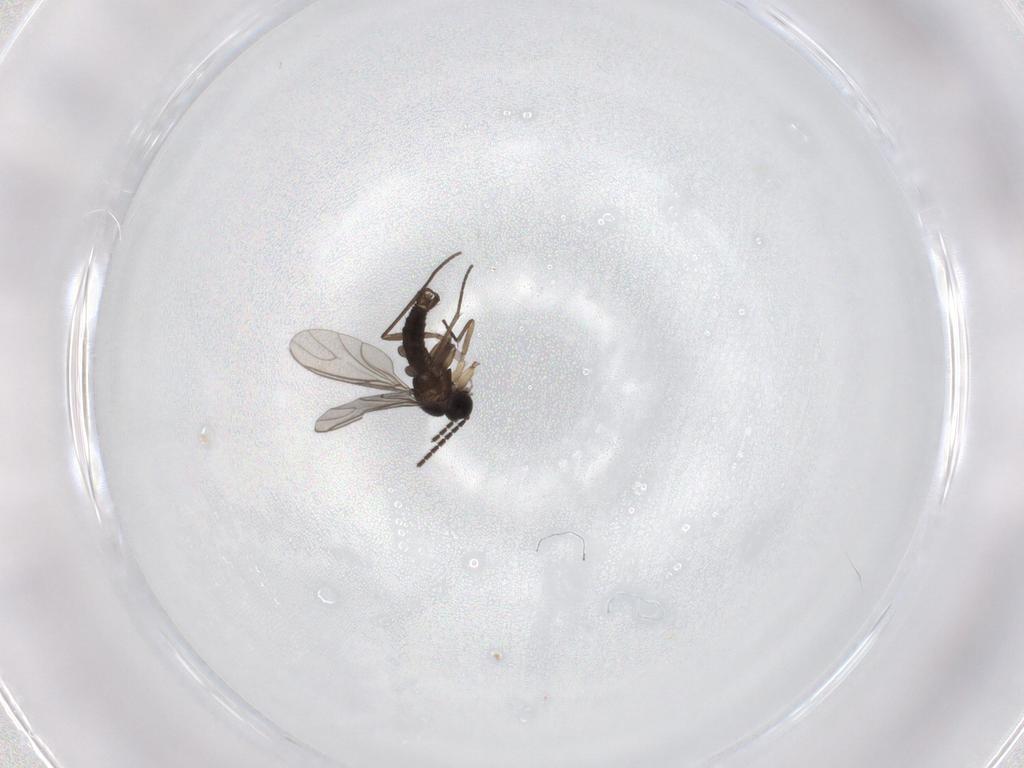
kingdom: Animalia
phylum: Arthropoda
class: Insecta
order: Diptera
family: Sciaridae
